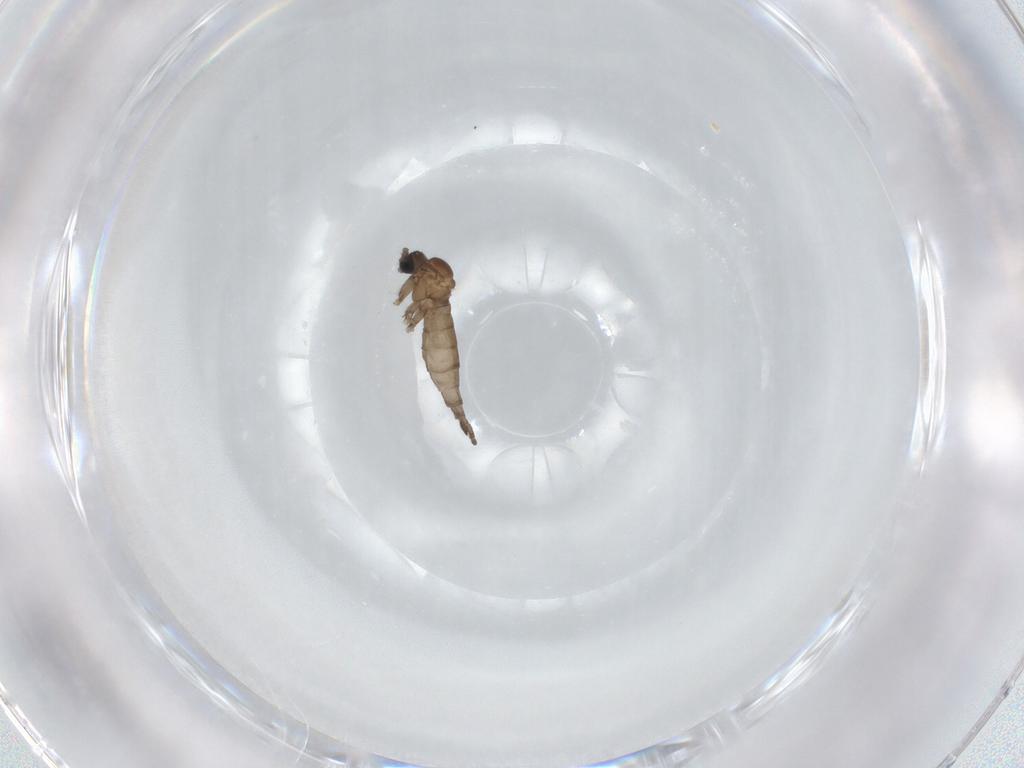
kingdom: Animalia
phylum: Arthropoda
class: Insecta
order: Diptera
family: Sciaridae
